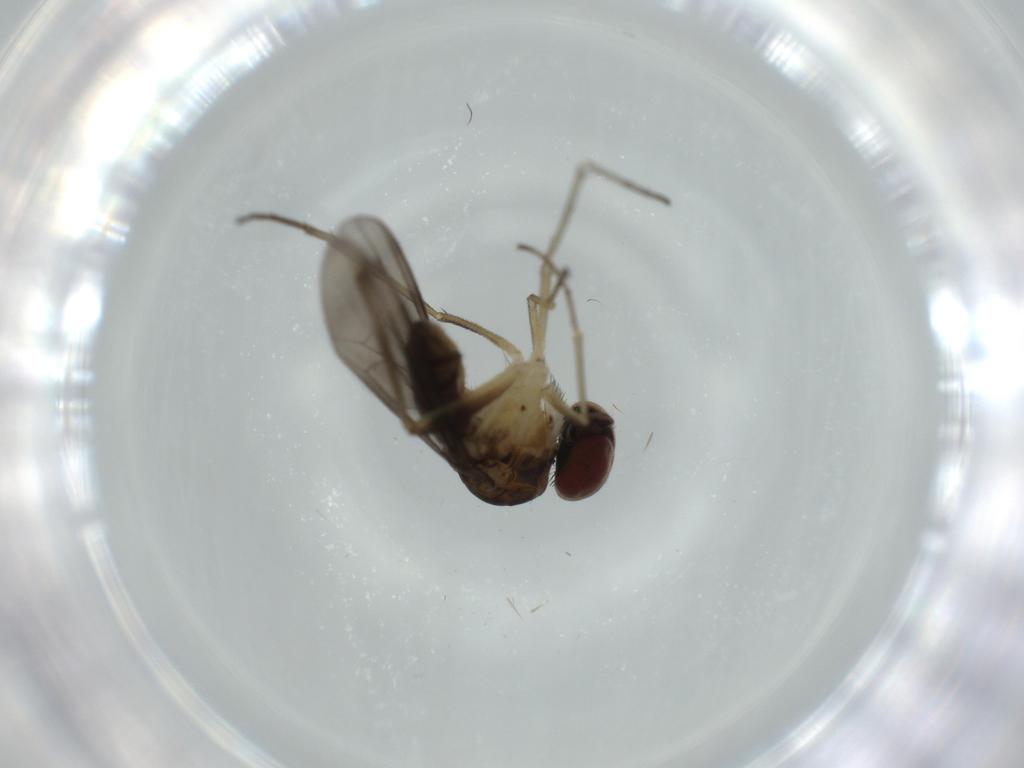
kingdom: Animalia
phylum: Arthropoda
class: Insecta
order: Diptera
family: Dolichopodidae
